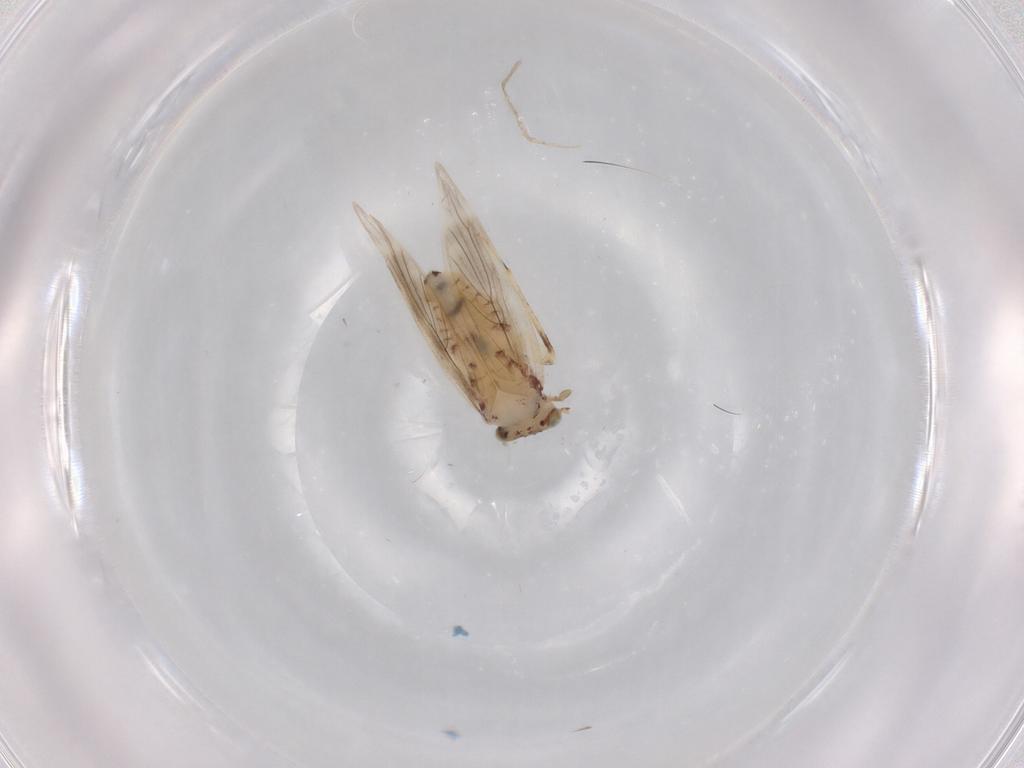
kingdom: Animalia
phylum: Arthropoda
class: Insecta
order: Psocodea
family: Lepidopsocidae
